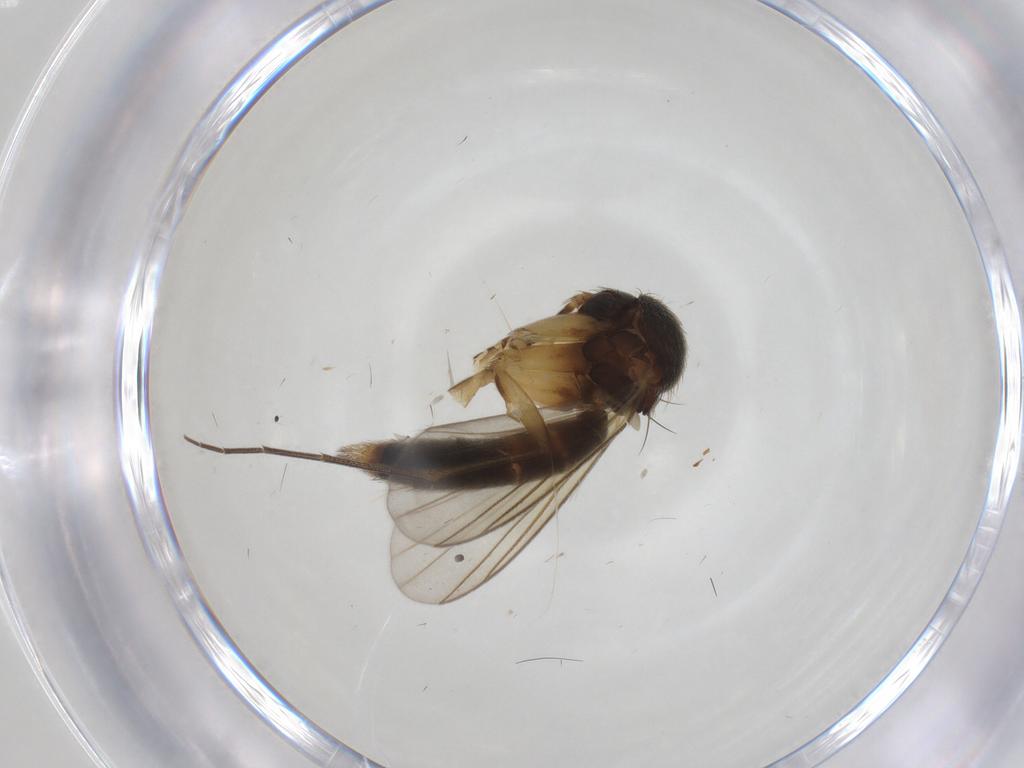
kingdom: Animalia
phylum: Arthropoda
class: Insecta
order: Diptera
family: Mycetophilidae
